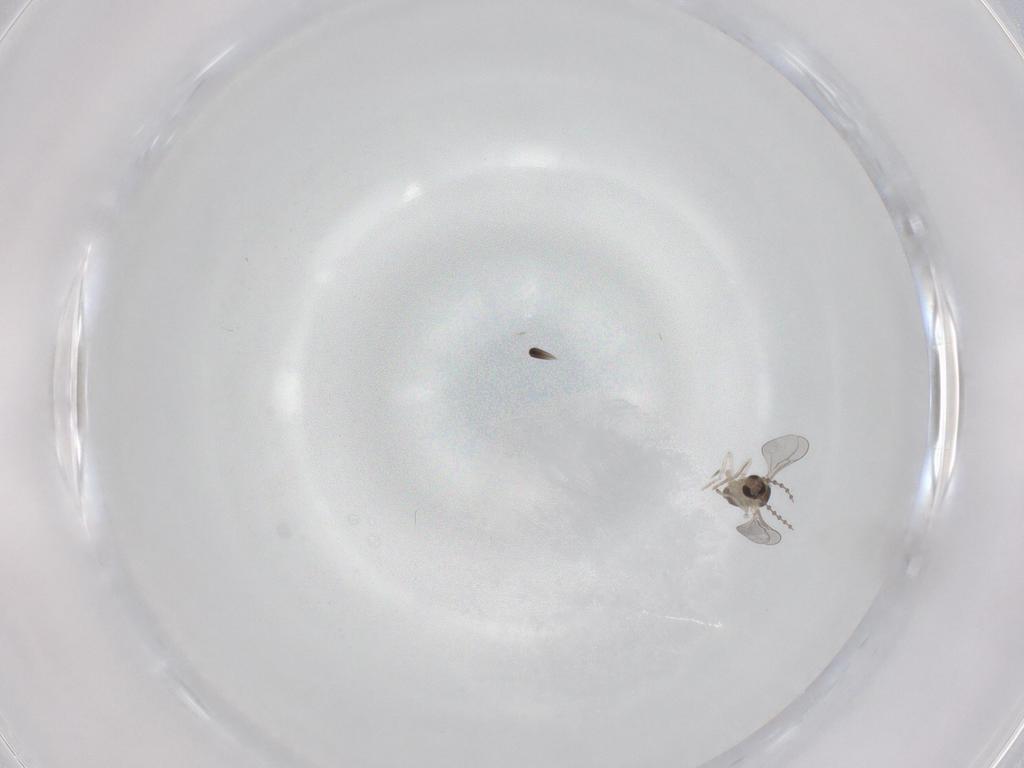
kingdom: Animalia
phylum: Arthropoda
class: Insecta
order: Diptera
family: Cecidomyiidae
